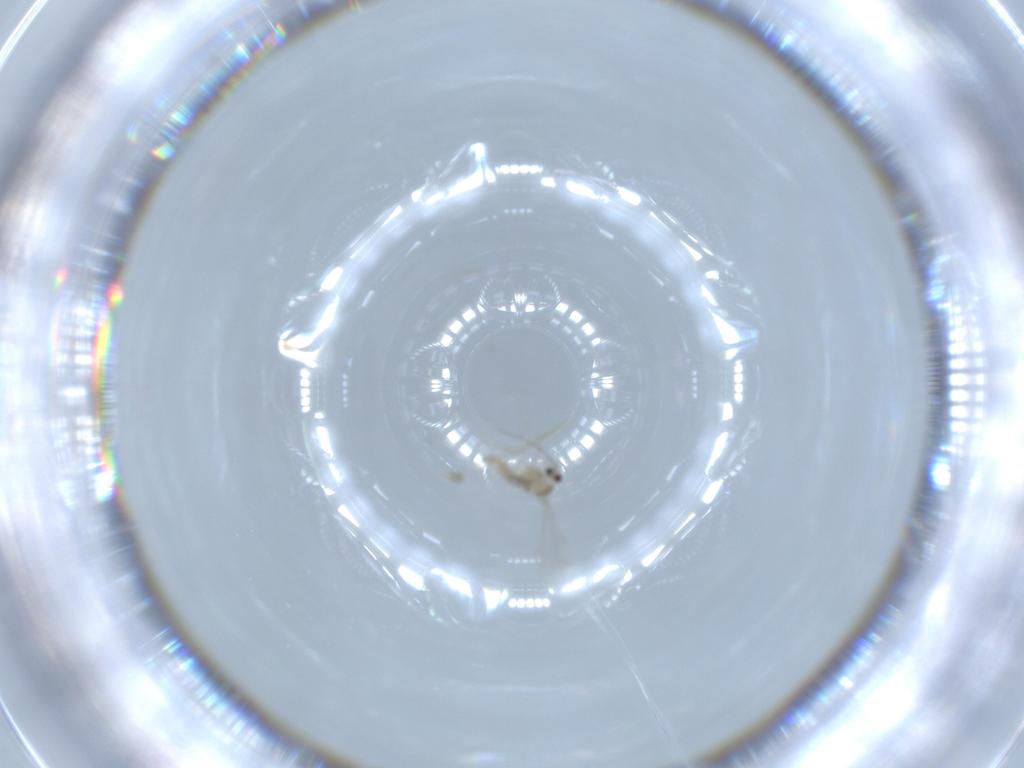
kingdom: Animalia
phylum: Arthropoda
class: Insecta
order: Diptera
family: Cecidomyiidae
